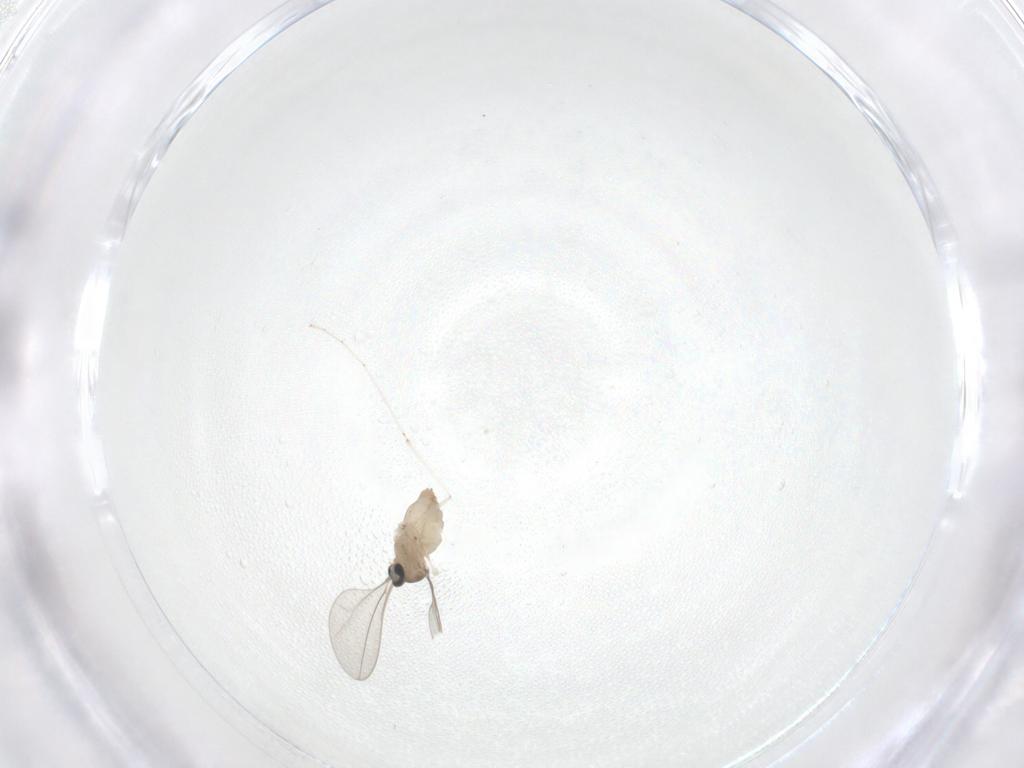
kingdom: Animalia
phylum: Arthropoda
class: Insecta
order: Diptera
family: Cecidomyiidae
